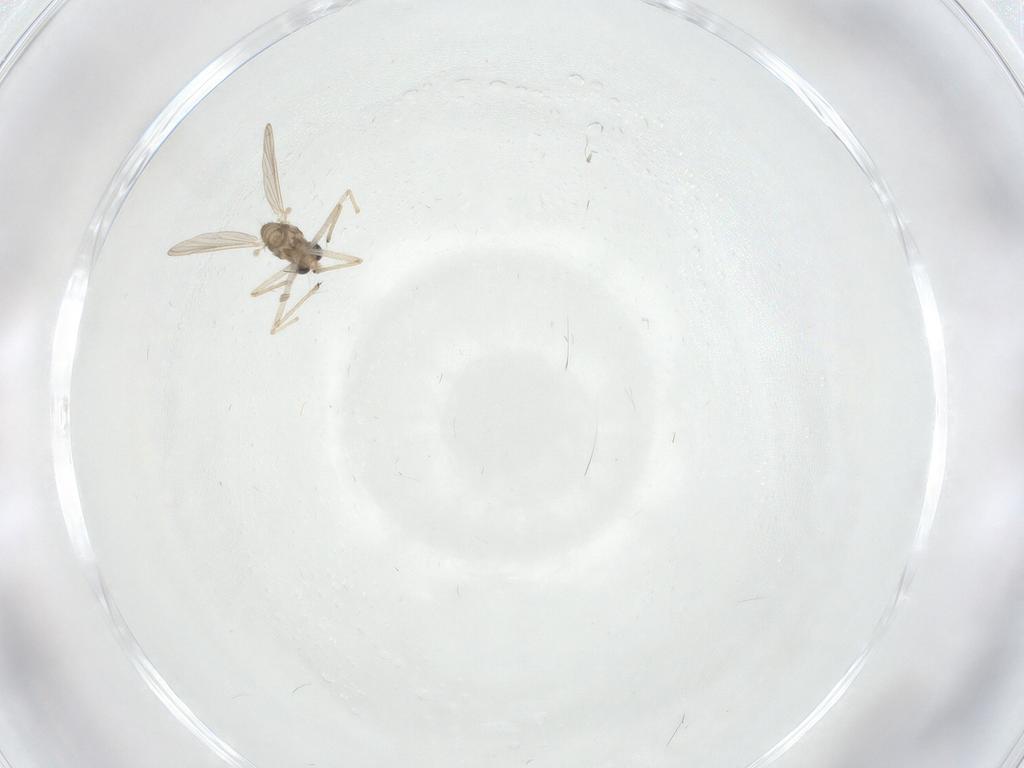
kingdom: Animalia
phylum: Arthropoda
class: Insecta
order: Diptera
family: Chironomidae
